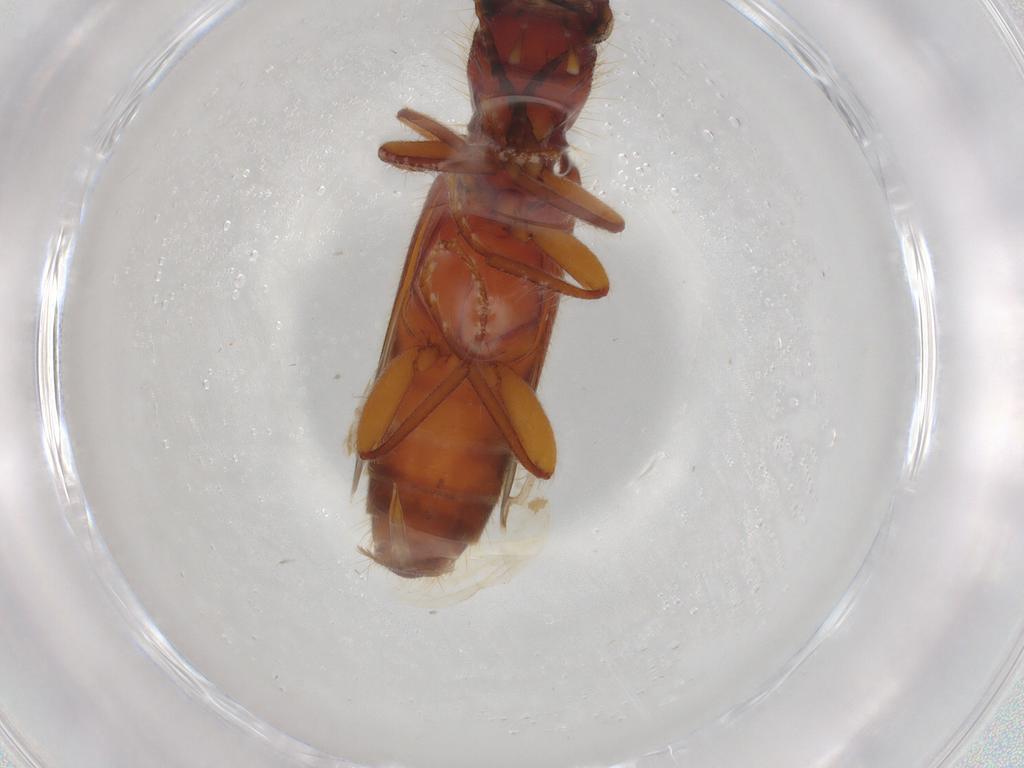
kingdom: Animalia
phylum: Arthropoda
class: Insecta
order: Coleoptera
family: Cleridae
